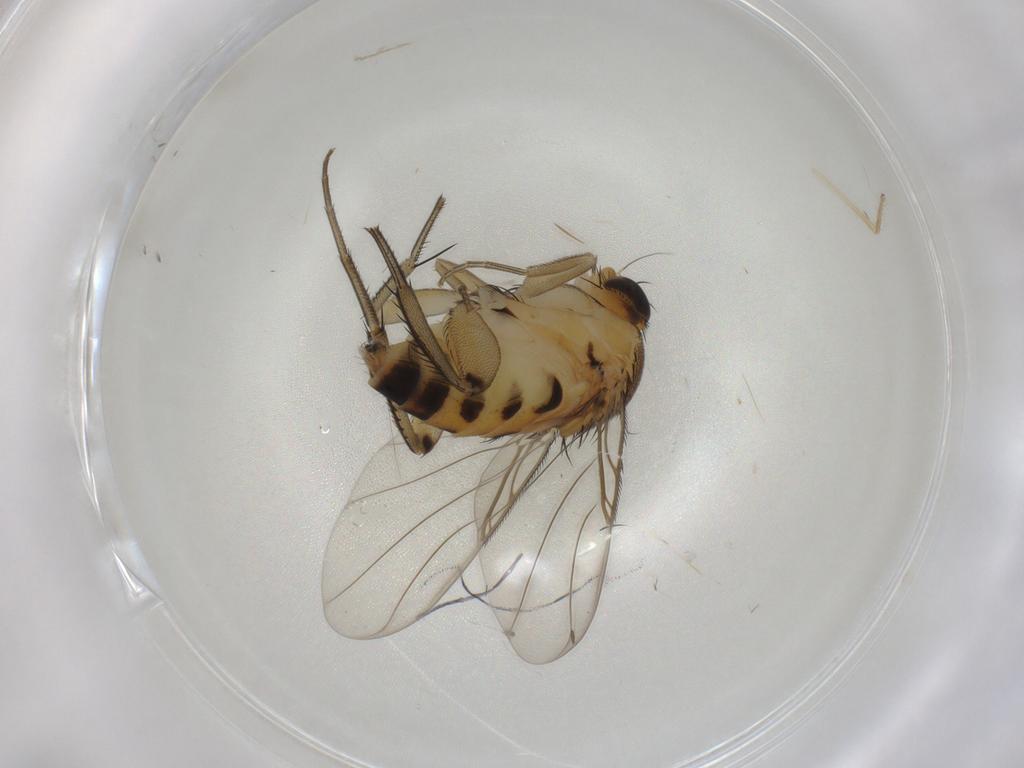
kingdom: Animalia
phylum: Arthropoda
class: Insecta
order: Diptera
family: Phoridae
